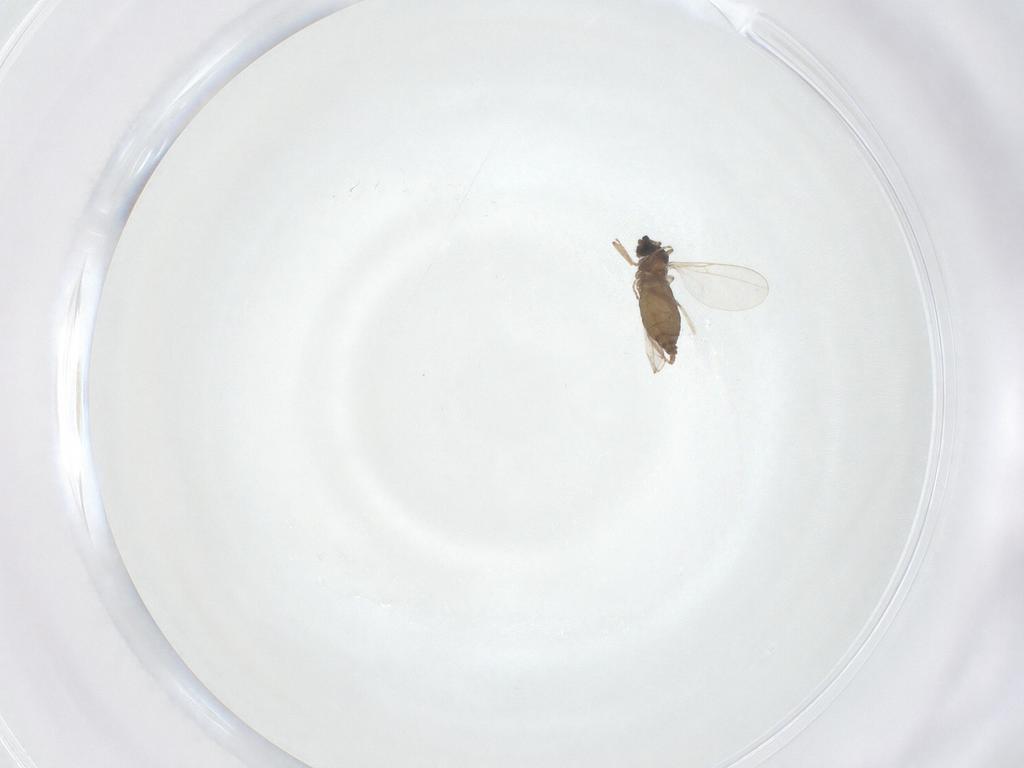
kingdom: Animalia
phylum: Arthropoda
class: Insecta
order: Diptera
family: Cecidomyiidae
